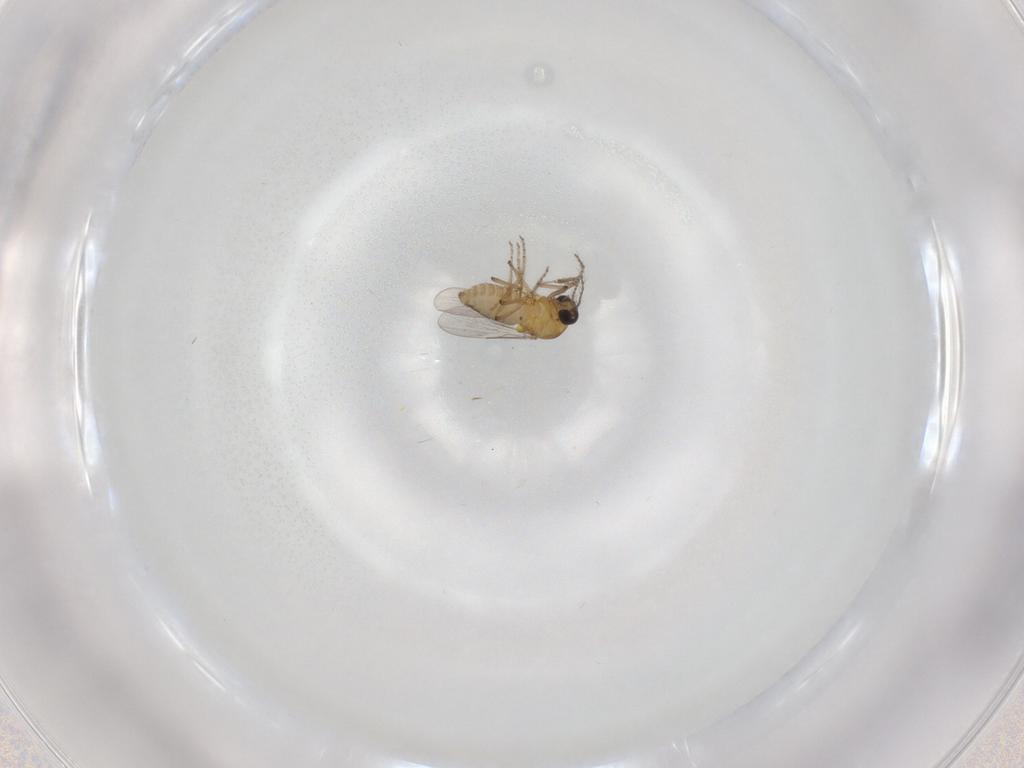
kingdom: Animalia
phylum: Arthropoda
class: Insecta
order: Diptera
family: Ceratopogonidae
